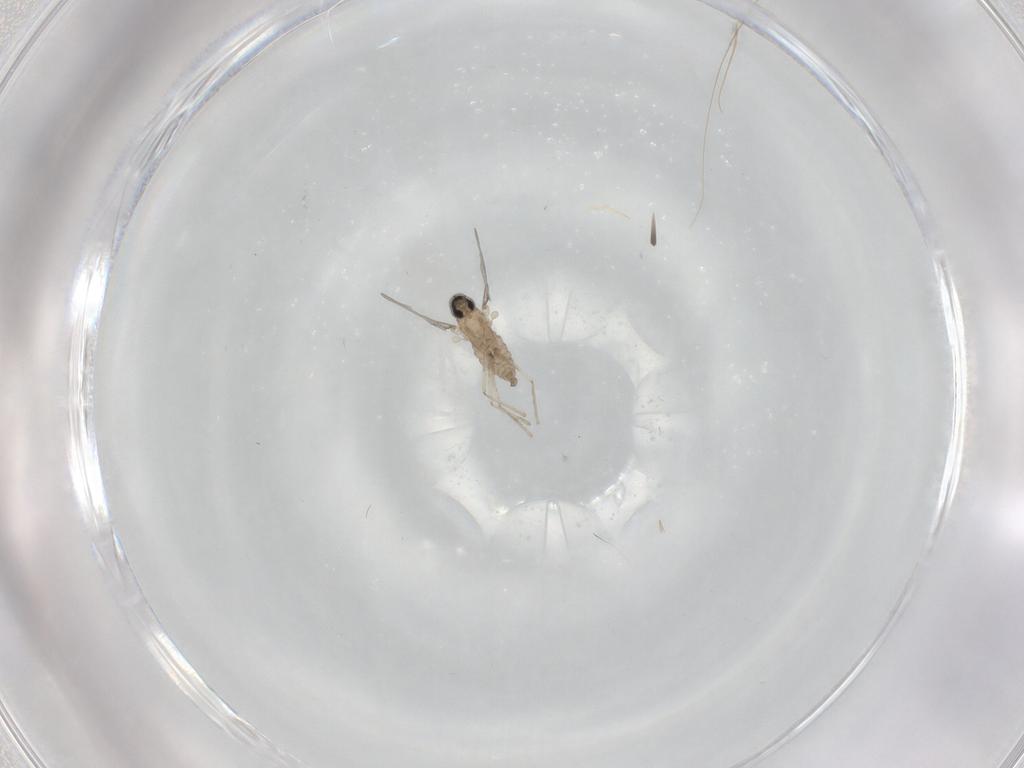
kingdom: Animalia
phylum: Arthropoda
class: Insecta
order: Diptera
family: Cecidomyiidae
